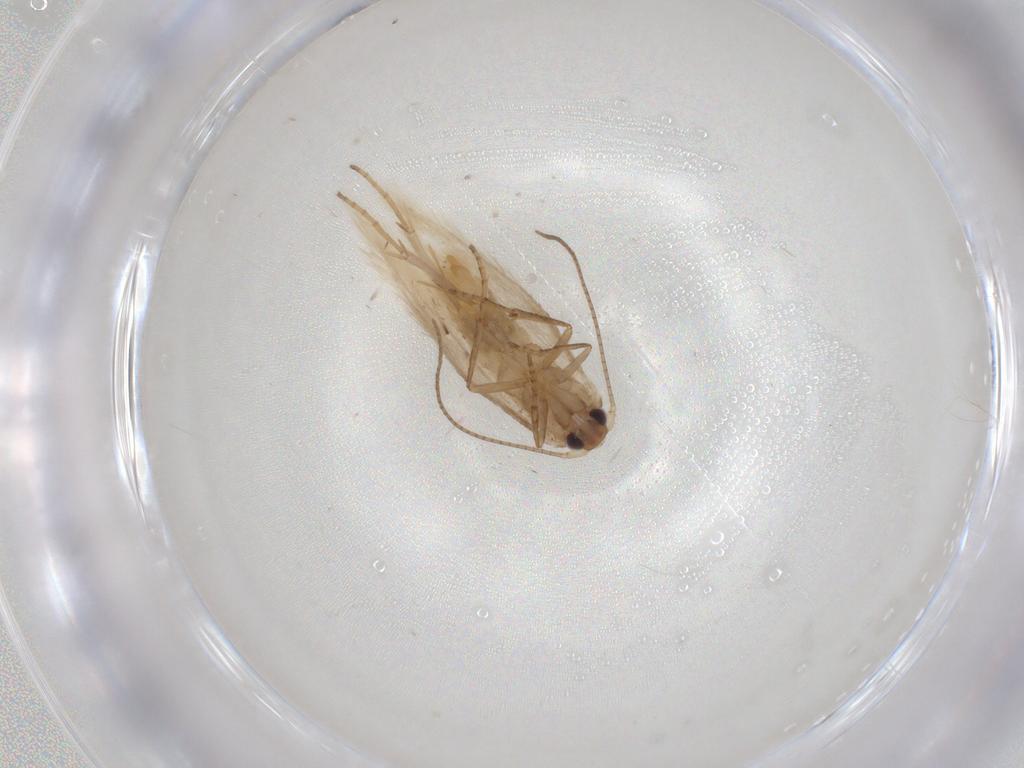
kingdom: Animalia
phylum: Arthropoda
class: Insecta
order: Lepidoptera
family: Bucculatricidae
